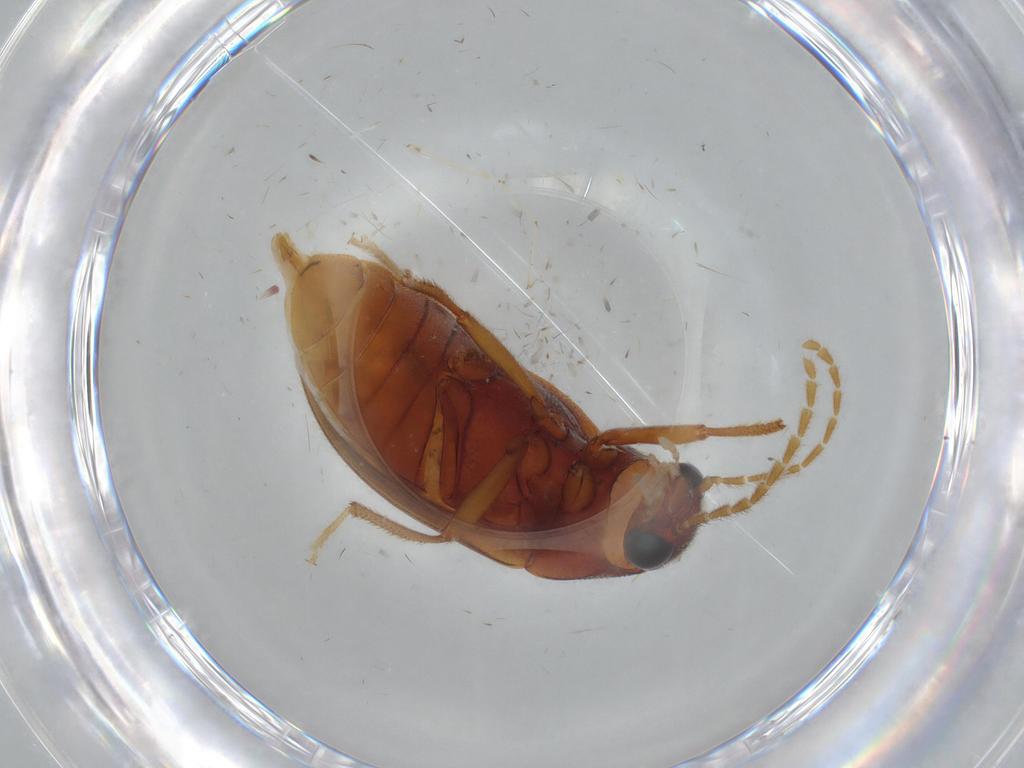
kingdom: Animalia
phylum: Arthropoda
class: Insecta
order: Coleoptera
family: Ptilodactylidae
